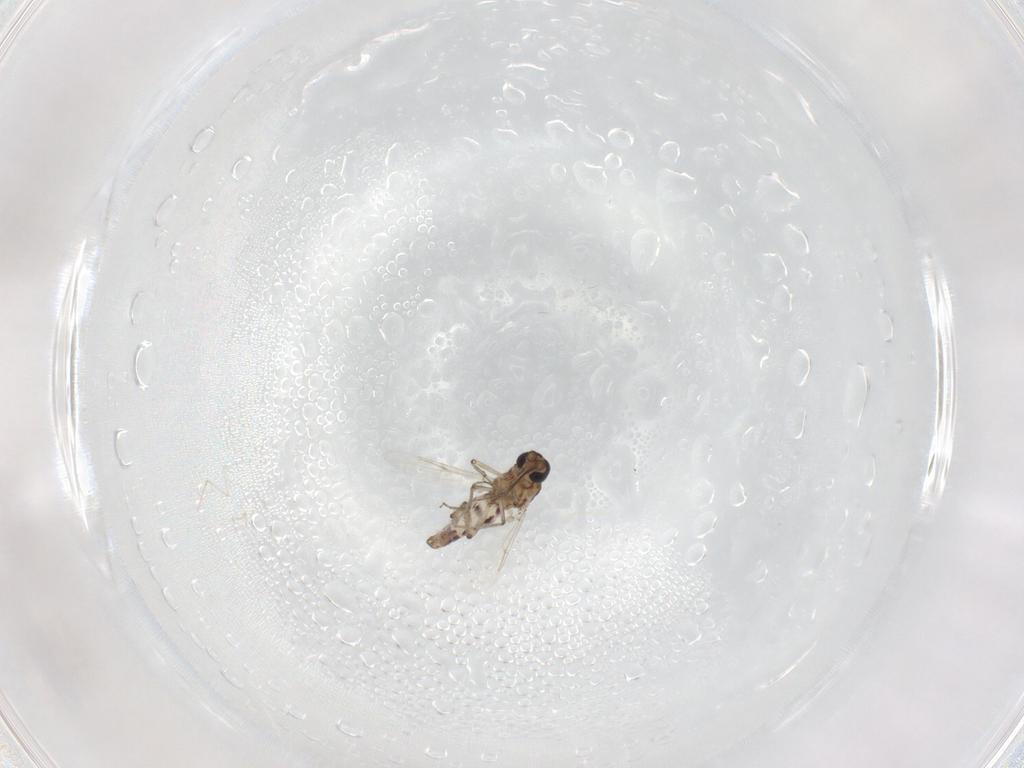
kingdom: Animalia
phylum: Arthropoda
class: Insecta
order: Diptera
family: Ceratopogonidae
